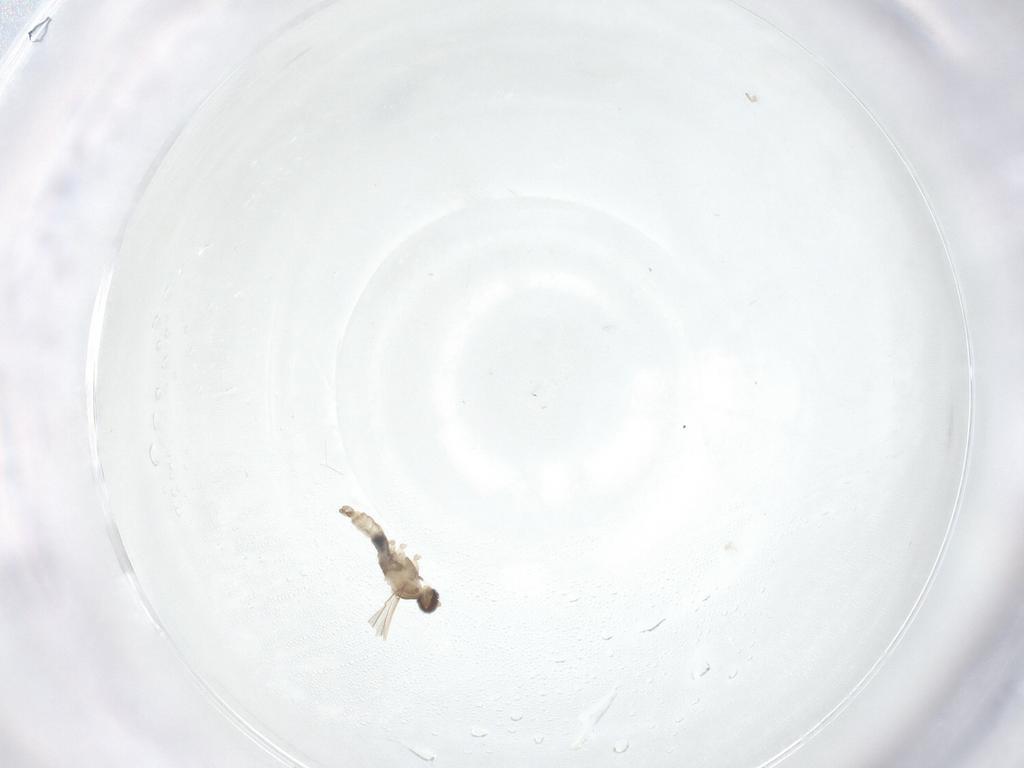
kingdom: Animalia
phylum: Arthropoda
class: Insecta
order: Diptera
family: Cecidomyiidae
